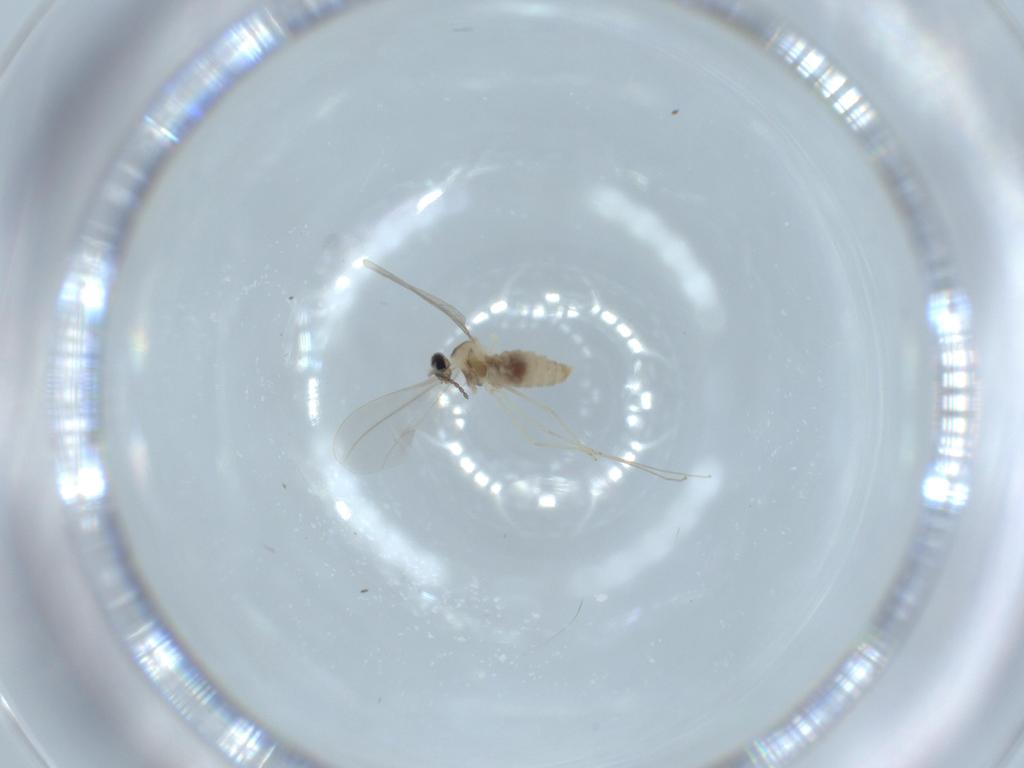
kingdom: Animalia
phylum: Arthropoda
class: Insecta
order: Diptera
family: Cecidomyiidae
